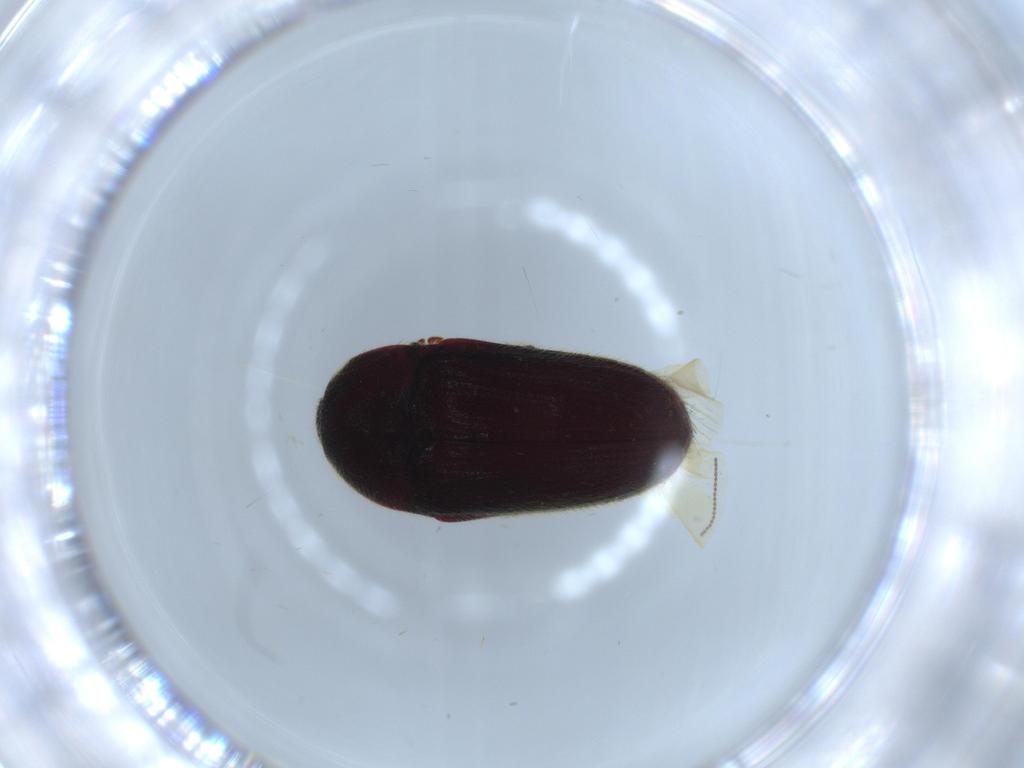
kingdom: Animalia
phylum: Arthropoda
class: Insecta
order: Coleoptera
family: Throscidae
